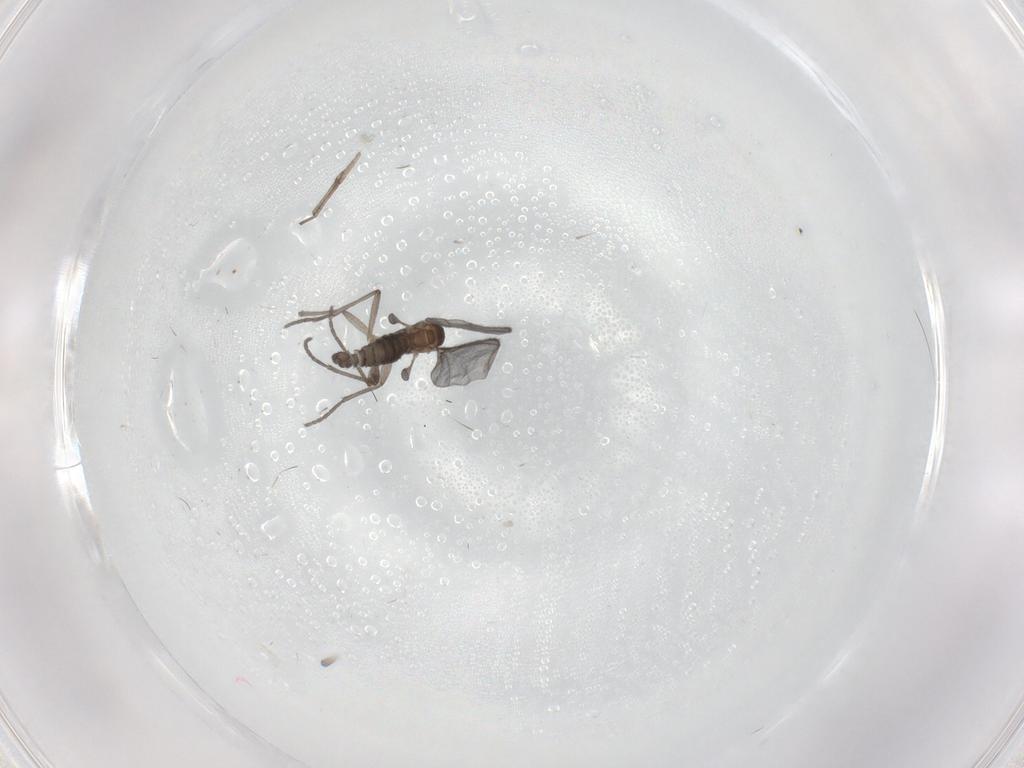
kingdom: Animalia
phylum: Arthropoda
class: Insecta
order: Diptera
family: Sciaridae
